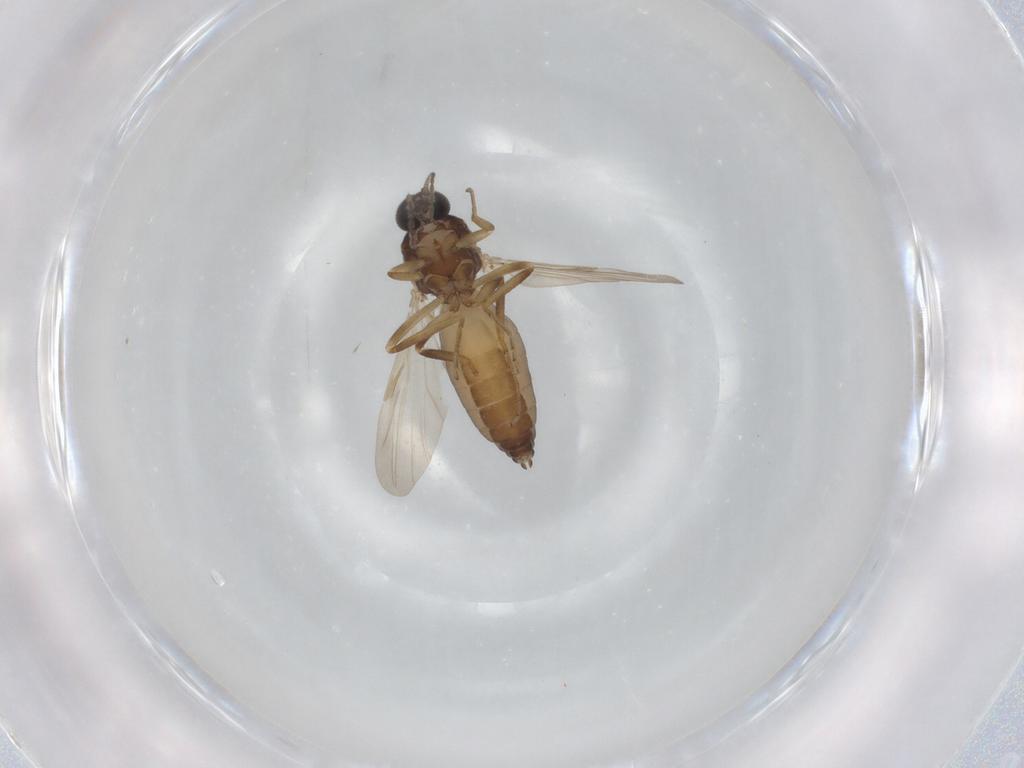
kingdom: Animalia
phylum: Arthropoda
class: Insecta
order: Diptera
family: Ceratopogonidae
